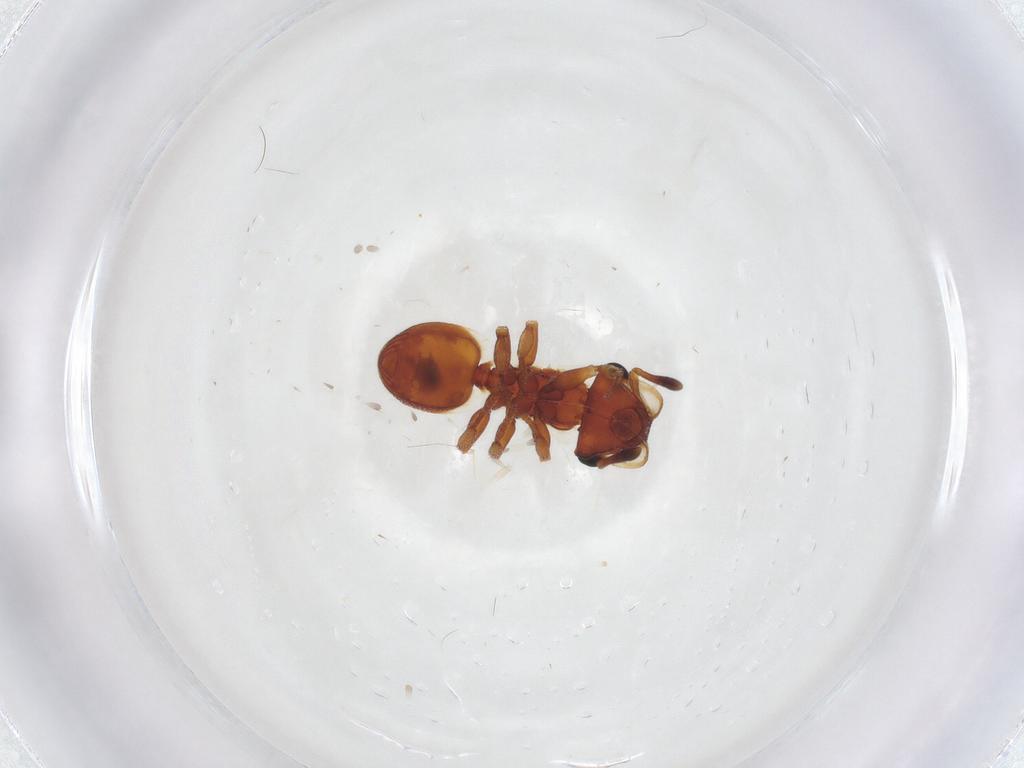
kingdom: Animalia
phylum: Arthropoda
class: Insecta
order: Hymenoptera
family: Formicidae
